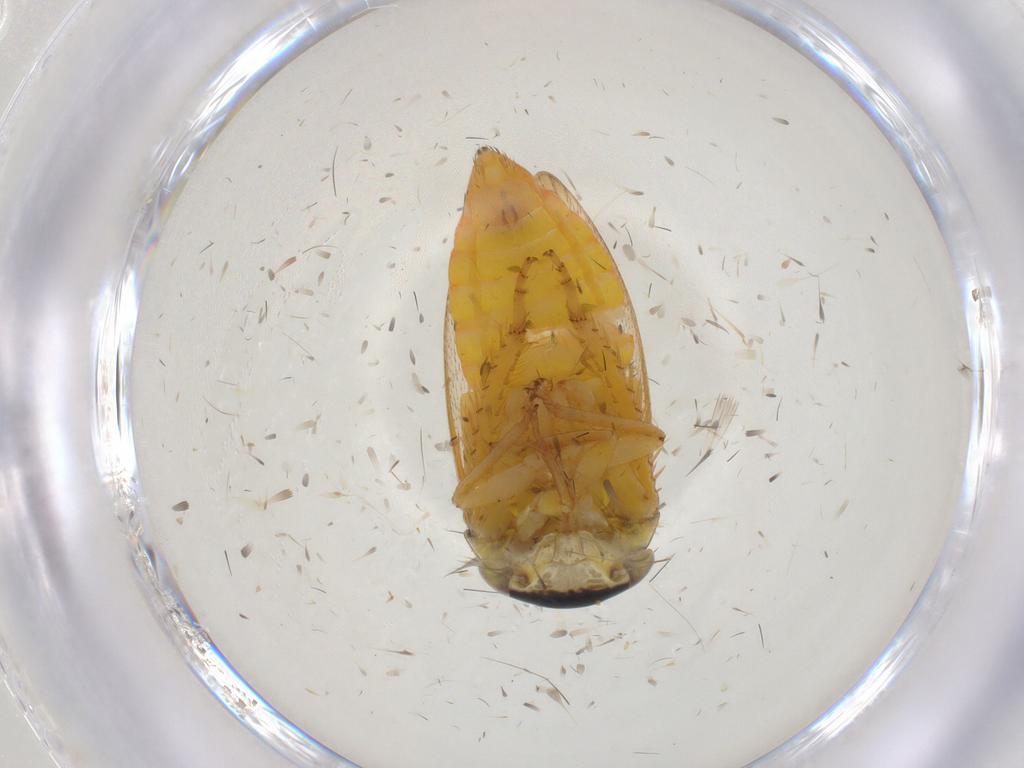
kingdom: Animalia
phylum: Arthropoda
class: Insecta
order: Hemiptera
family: Cicadellidae
